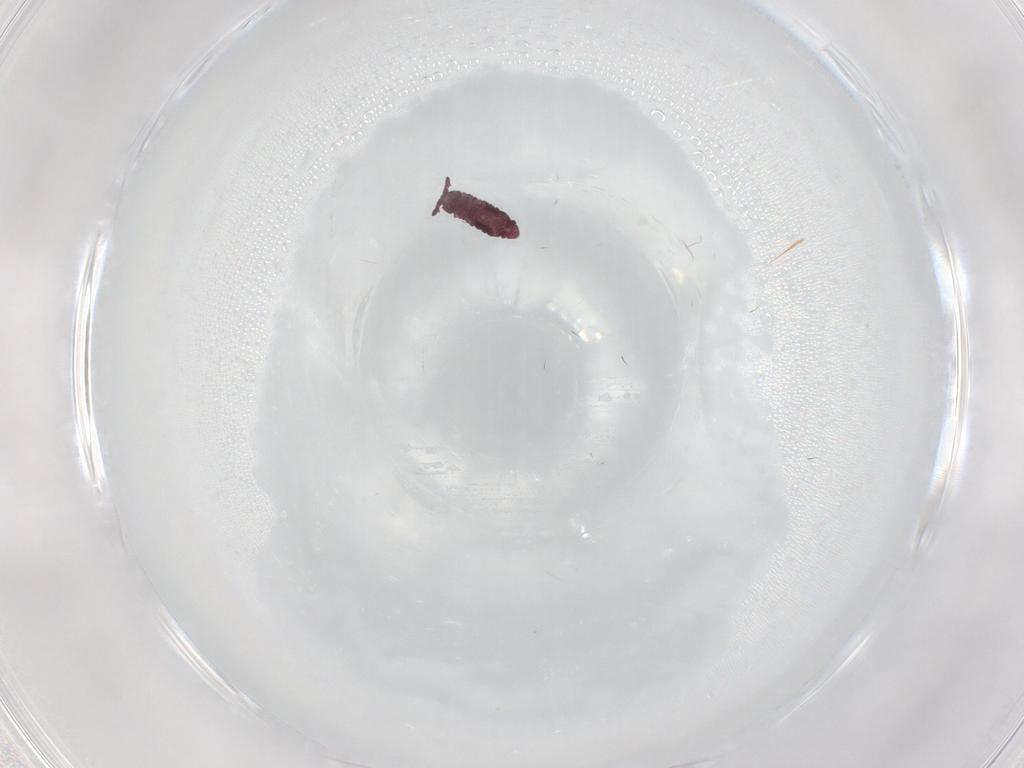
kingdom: Animalia
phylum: Arthropoda
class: Collembola
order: Poduromorpha
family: Hypogastruridae
